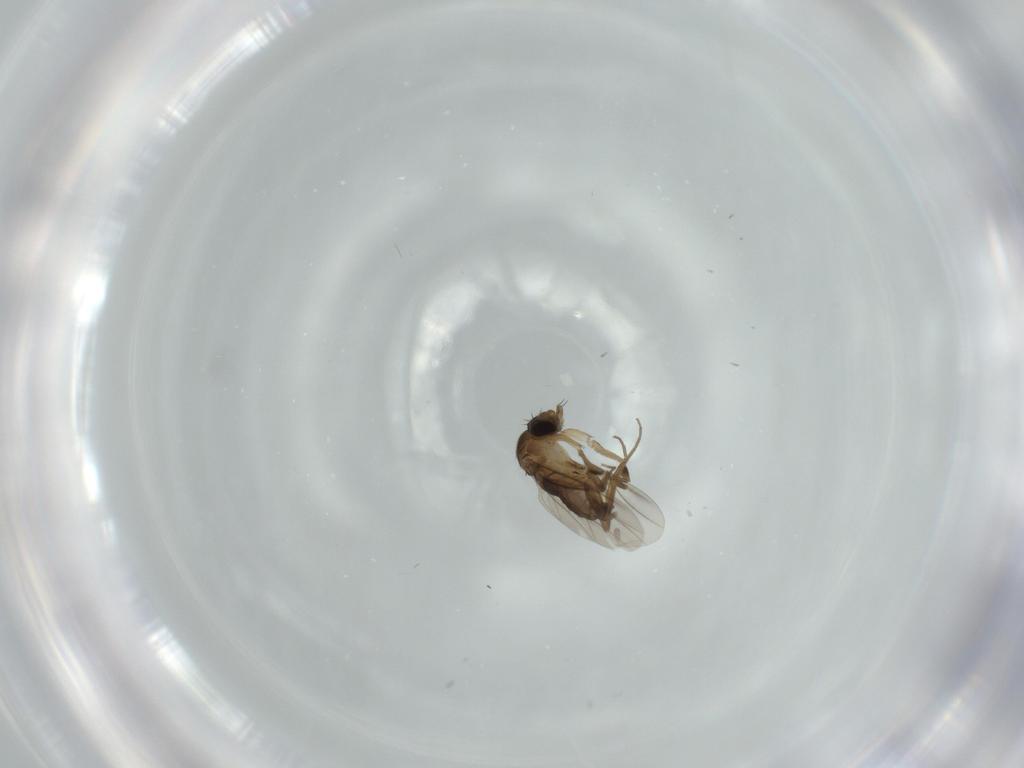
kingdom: Animalia
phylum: Arthropoda
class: Insecta
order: Diptera
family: Phoridae
